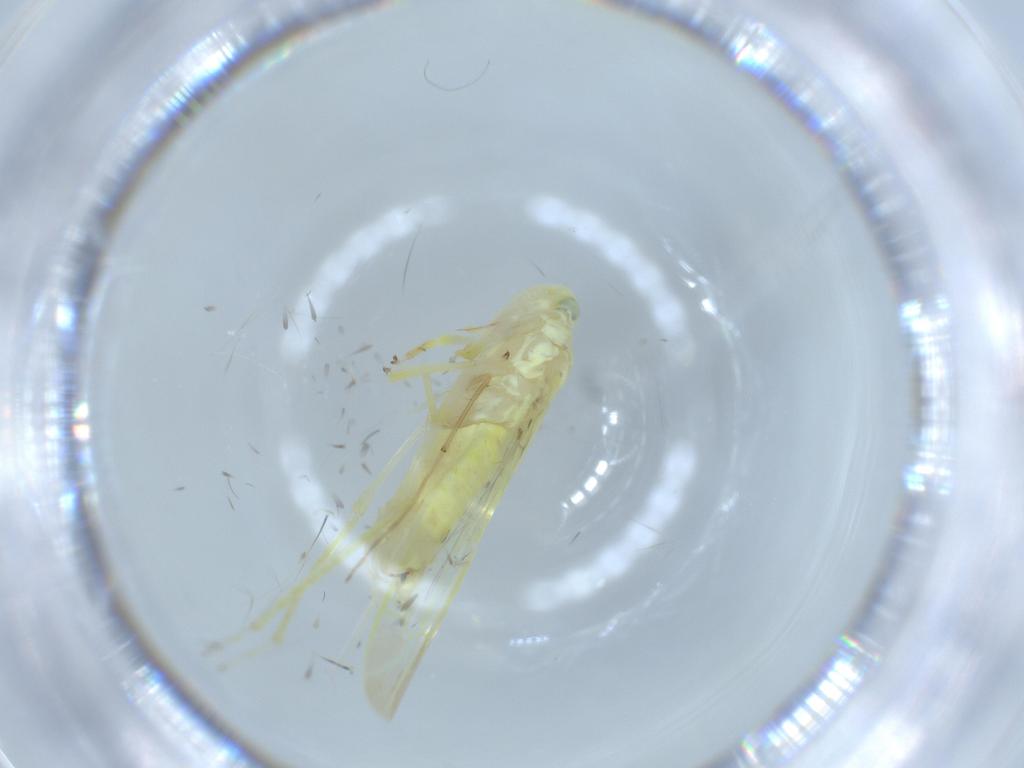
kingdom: Animalia
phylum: Arthropoda
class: Insecta
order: Hemiptera
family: Cicadellidae
